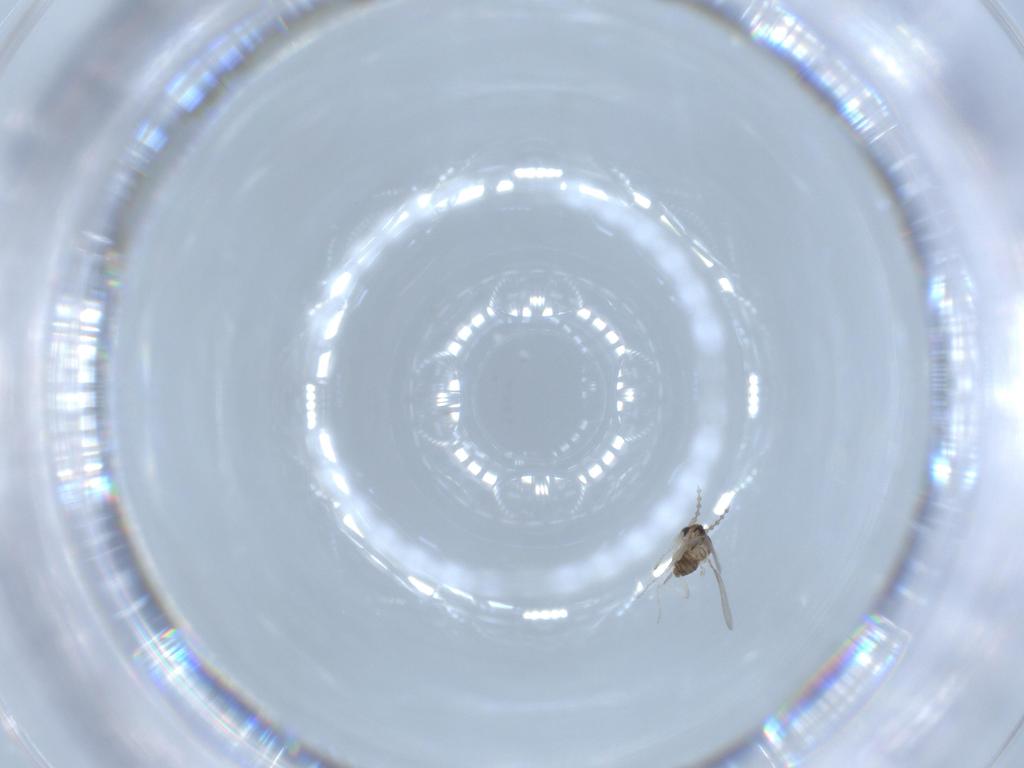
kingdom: Animalia
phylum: Arthropoda
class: Insecta
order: Diptera
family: Cecidomyiidae
